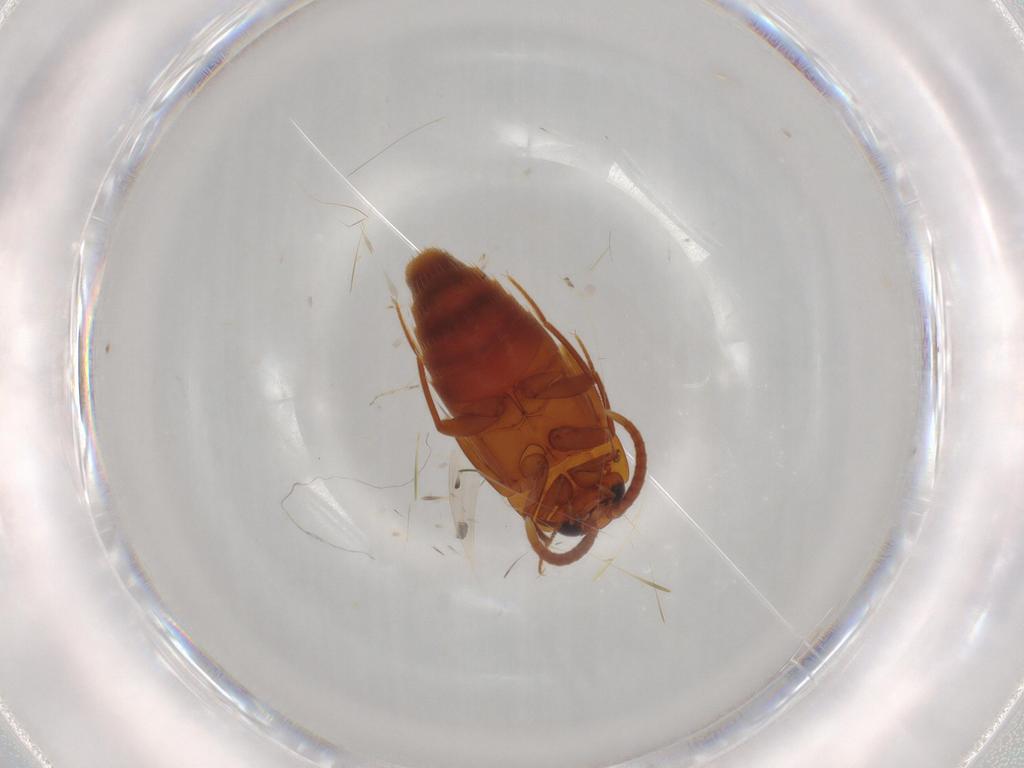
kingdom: Animalia
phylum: Arthropoda
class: Insecta
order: Coleoptera
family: Staphylinidae
